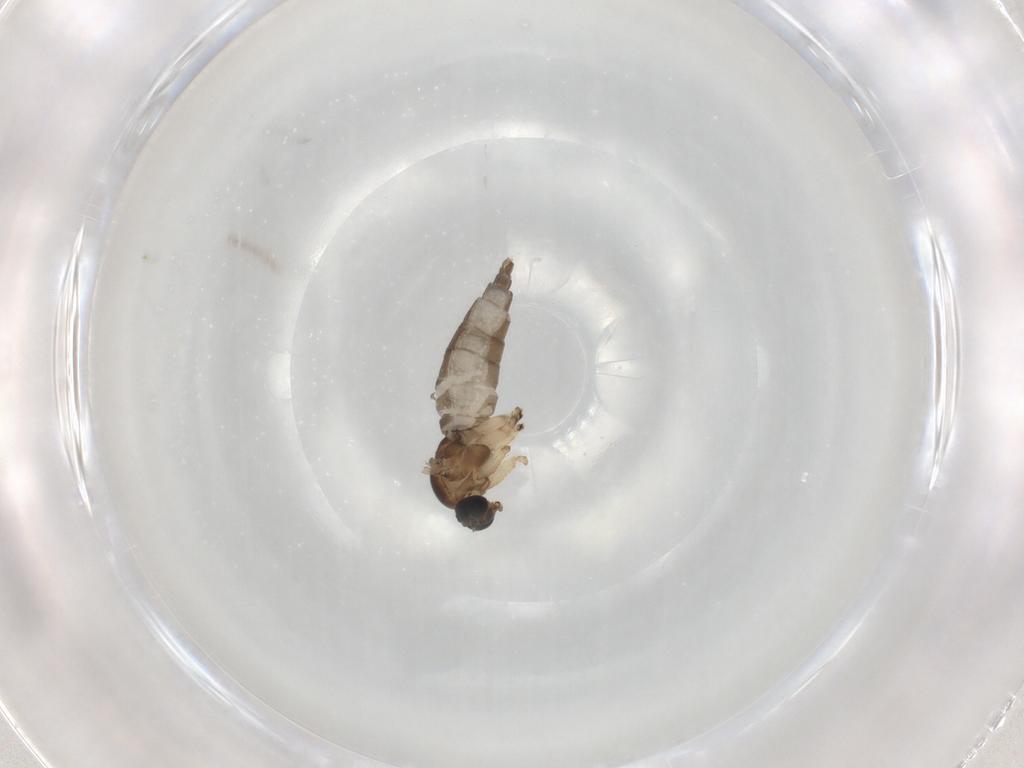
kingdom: Animalia
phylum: Arthropoda
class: Insecta
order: Diptera
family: Sciaridae
